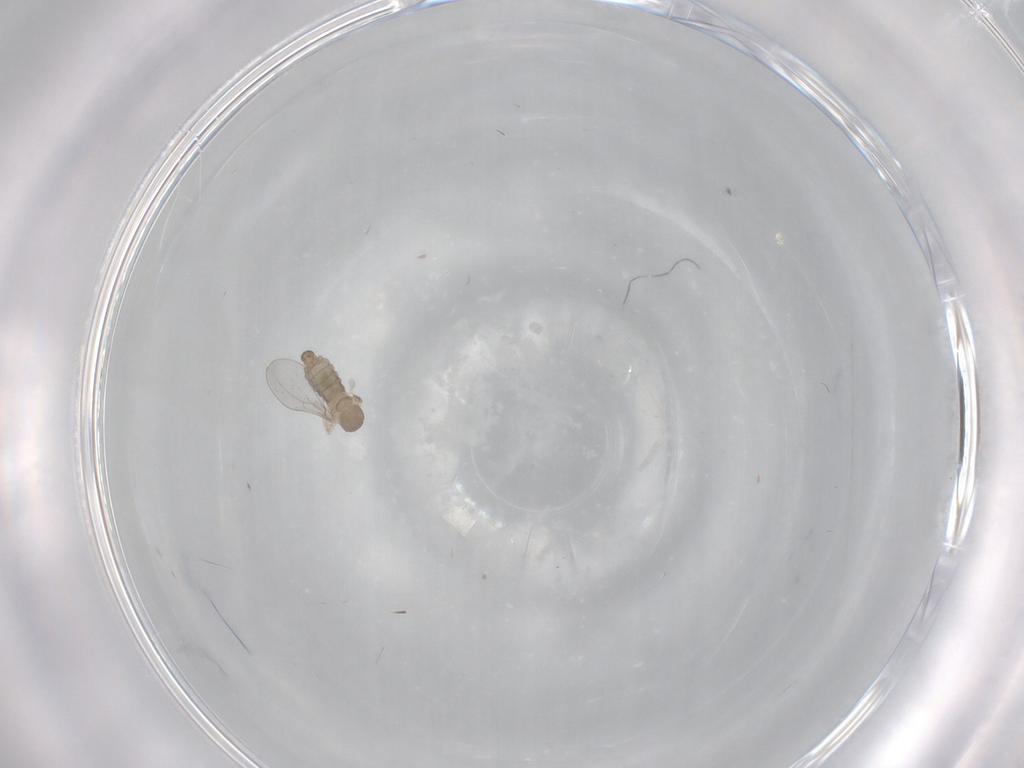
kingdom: Animalia
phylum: Arthropoda
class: Insecta
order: Diptera
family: Cecidomyiidae
